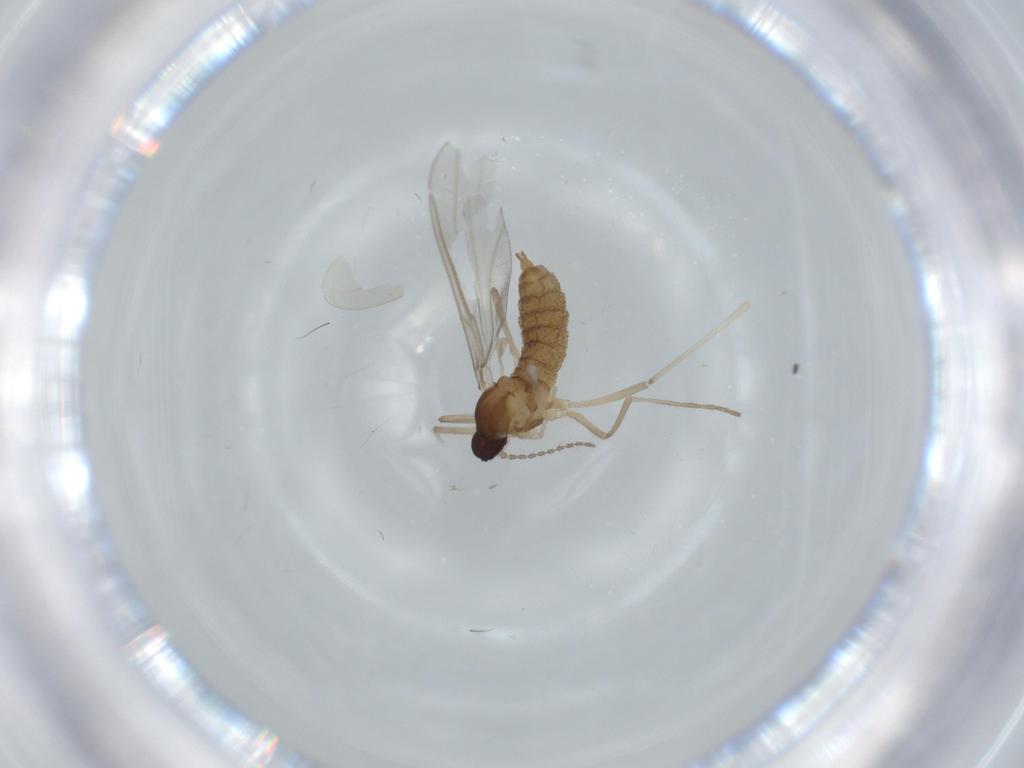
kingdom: Animalia
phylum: Arthropoda
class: Insecta
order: Diptera
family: Cecidomyiidae
